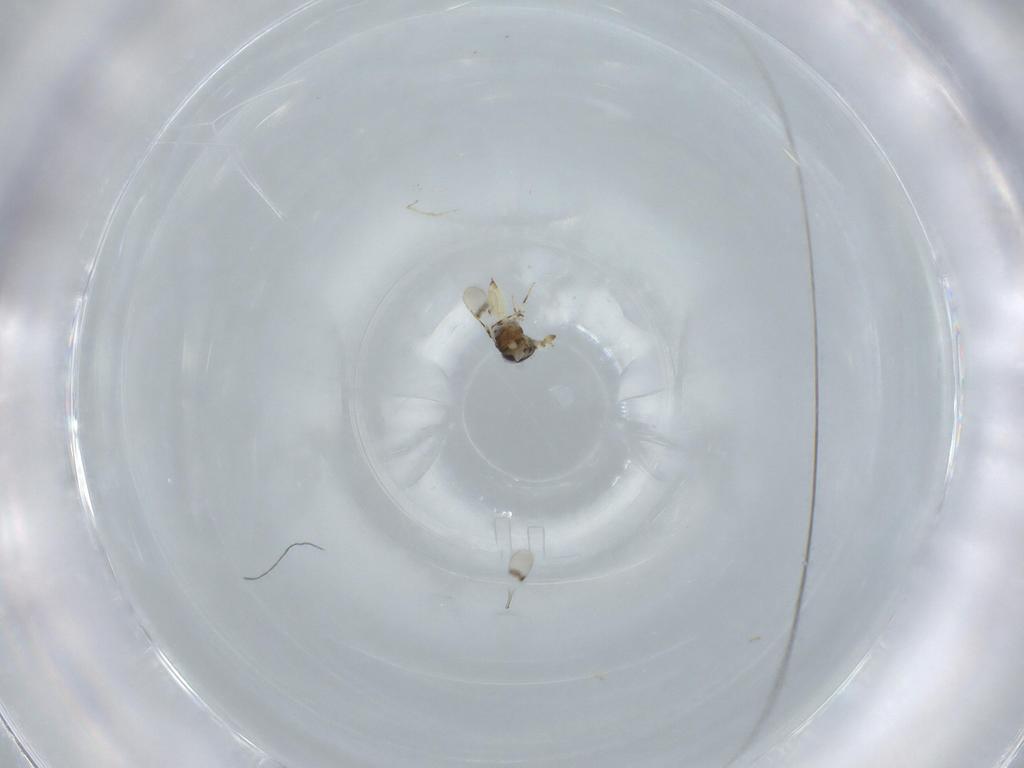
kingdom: Animalia
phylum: Arthropoda
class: Insecta
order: Hymenoptera
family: Scelionidae
